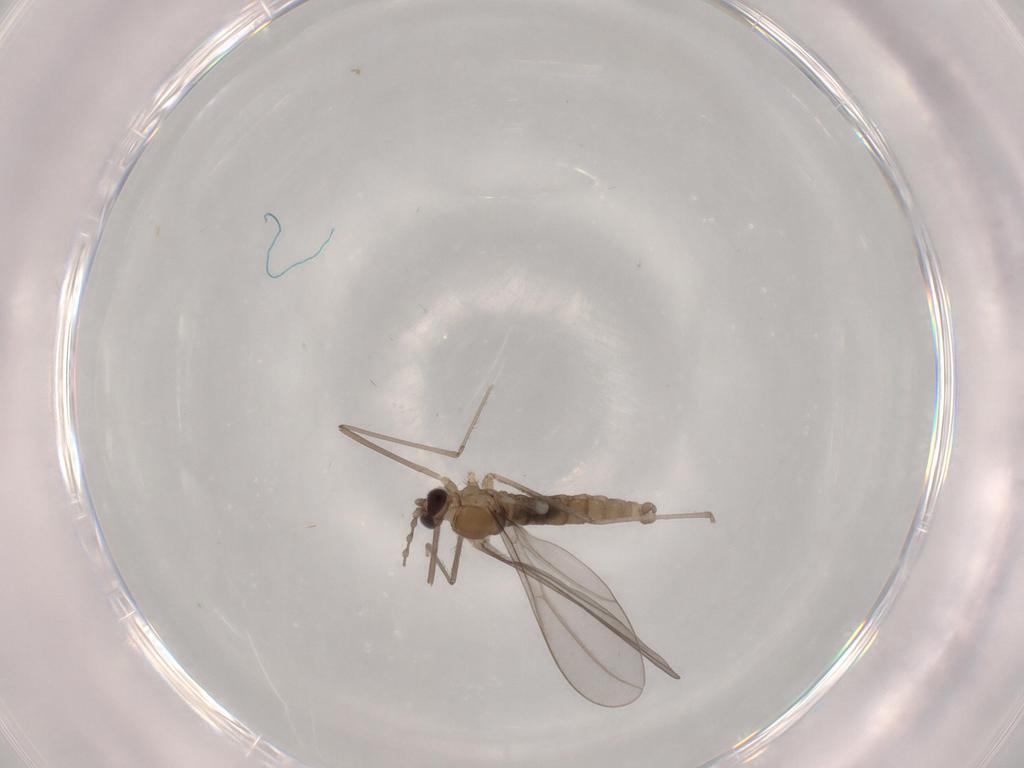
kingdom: Animalia
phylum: Arthropoda
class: Insecta
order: Diptera
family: Cecidomyiidae
